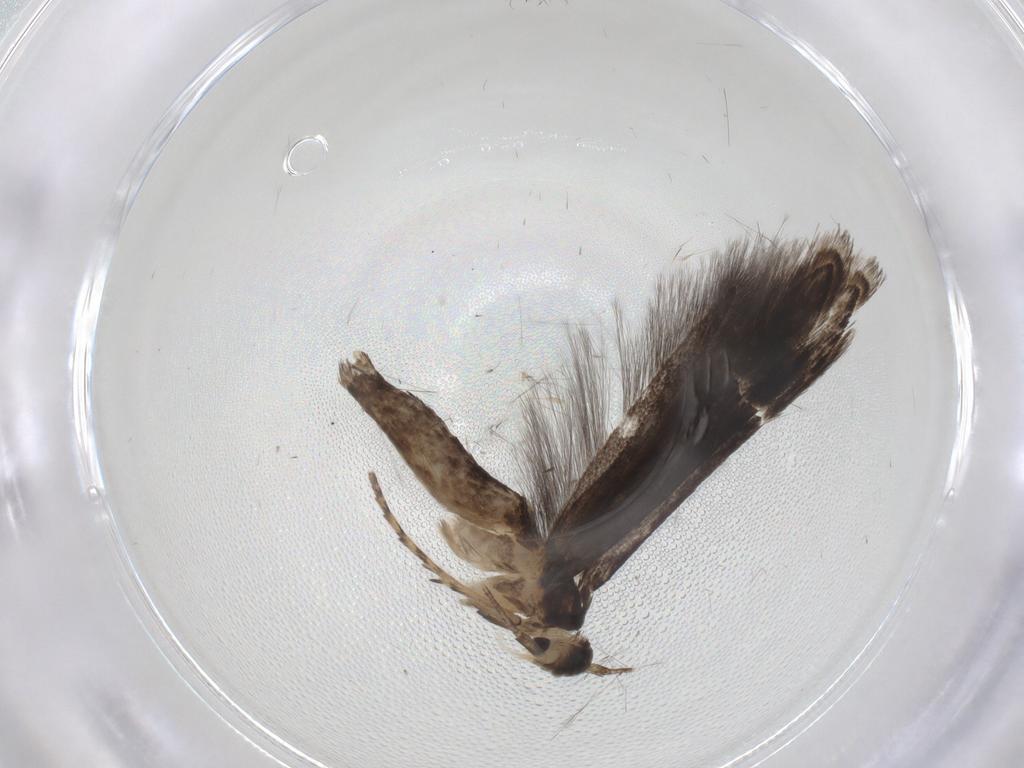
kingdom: Animalia
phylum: Arthropoda
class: Insecta
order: Lepidoptera
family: Elachistidae
